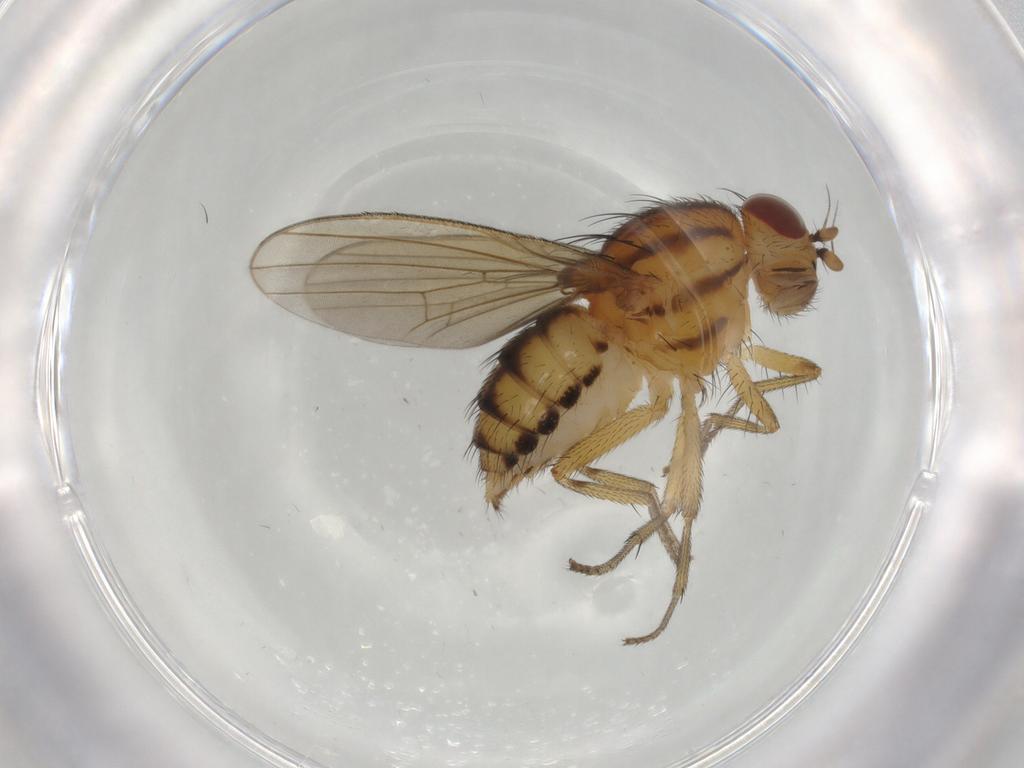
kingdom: Animalia
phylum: Arthropoda
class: Insecta
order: Diptera
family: Lauxaniidae
